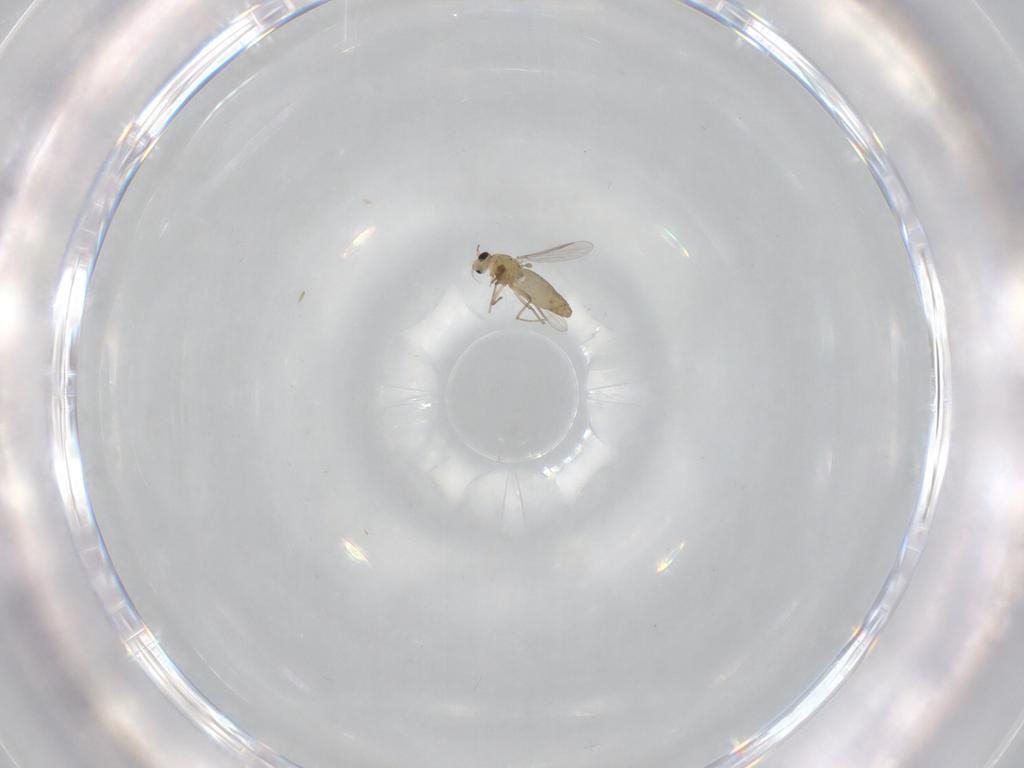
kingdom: Animalia
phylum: Arthropoda
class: Insecta
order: Diptera
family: Chironomidae
